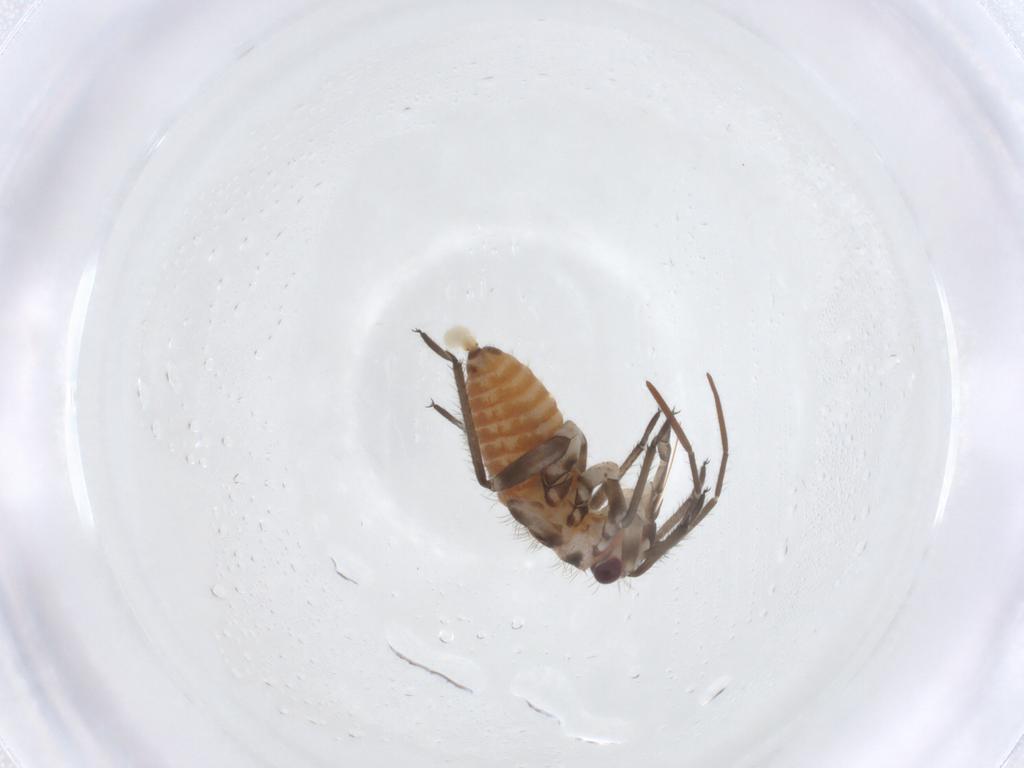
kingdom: Animalia
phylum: Arthropoda
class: Insecta
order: Hemiptera
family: Miridae
